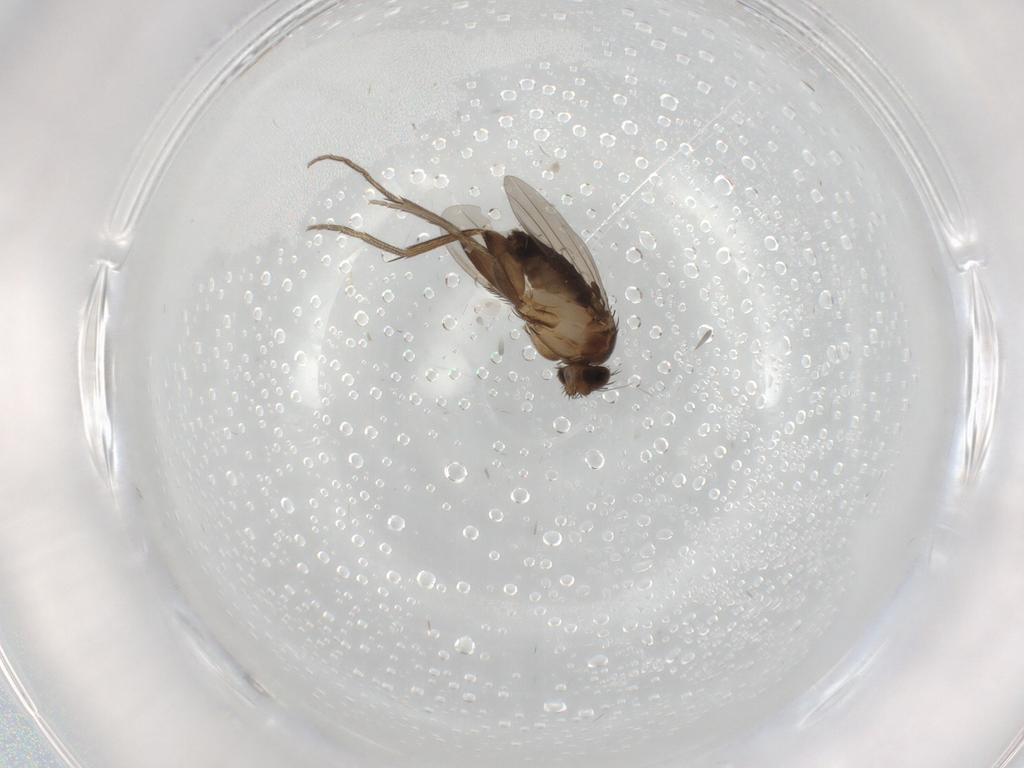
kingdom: Animalia
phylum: Arthropoda
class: Insecta
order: Diptera
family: Phoridae
